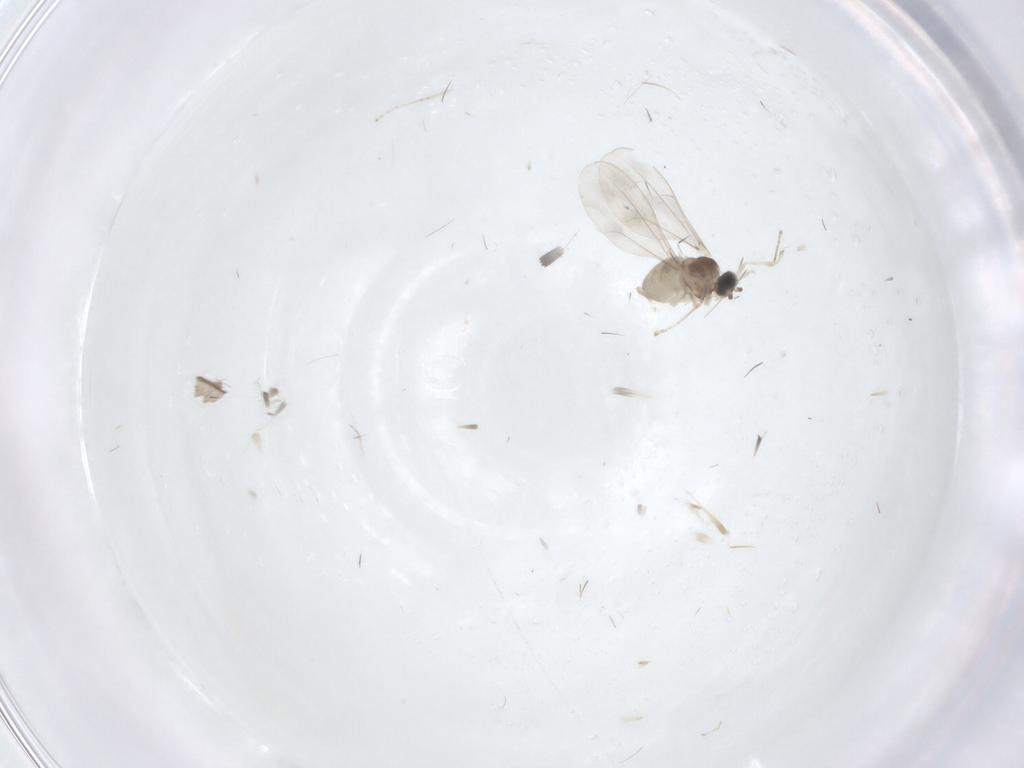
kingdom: Animalia
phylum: Arthropoda
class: Insecta
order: Diptera
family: Cecidomyiidae
